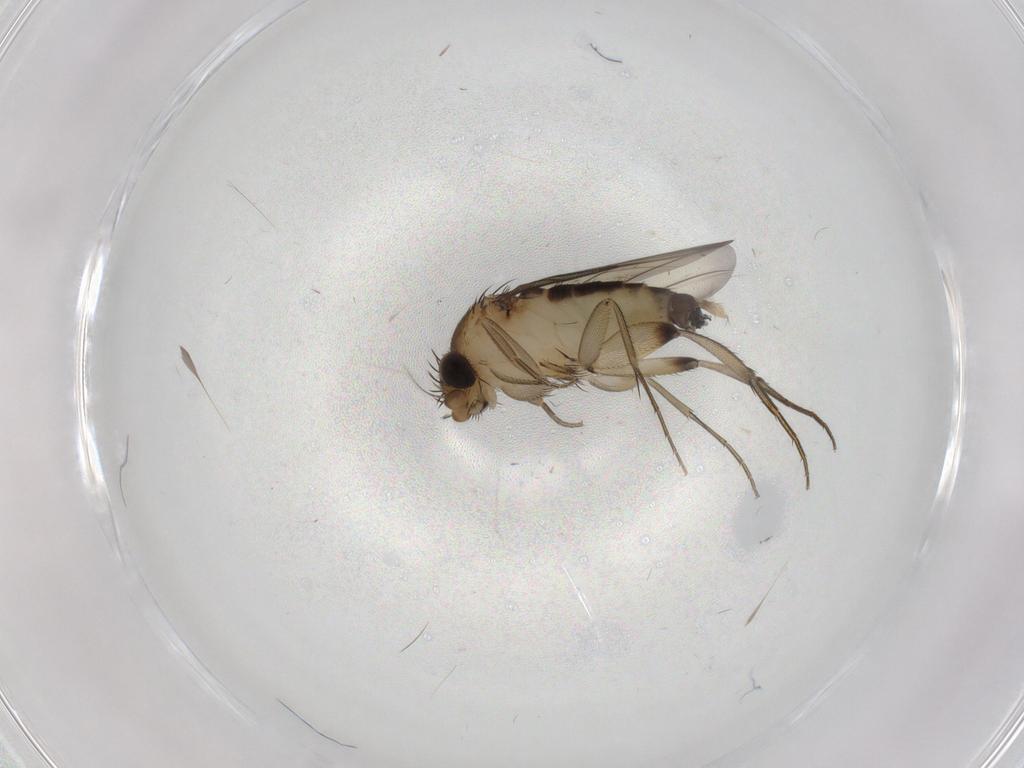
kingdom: Animalia
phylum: Arthropoda
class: Insecta
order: Diptera
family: Phoridae
